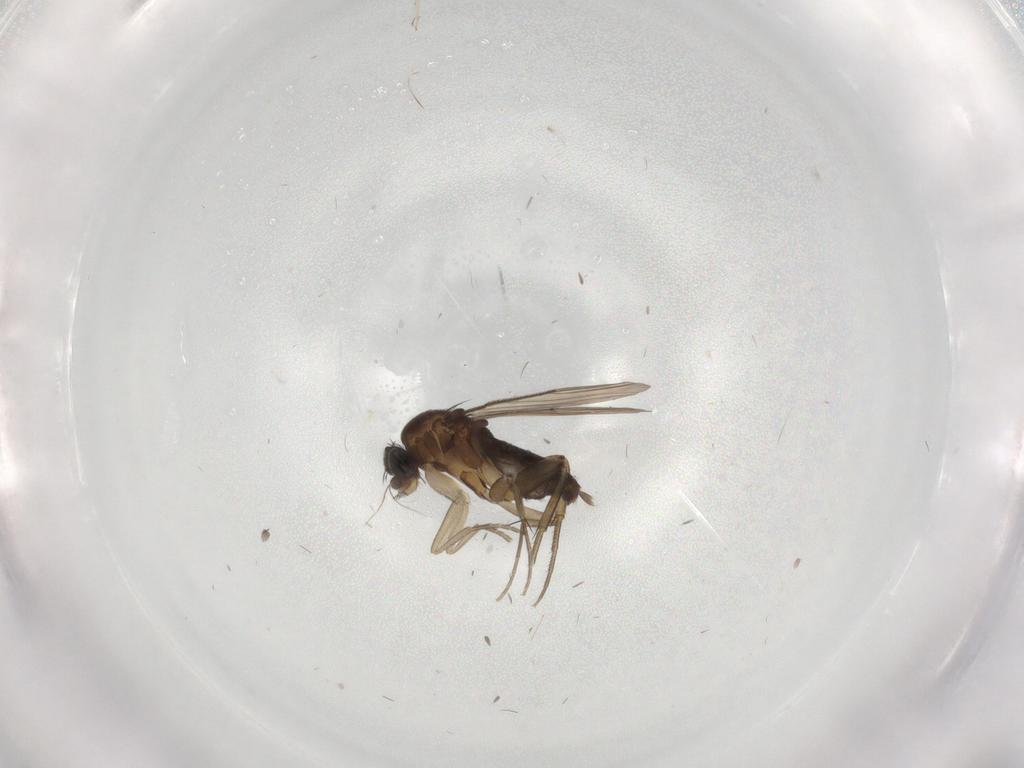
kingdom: Animalia
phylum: Arthropoda
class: Insecta
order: Diptera
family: Phoridae
